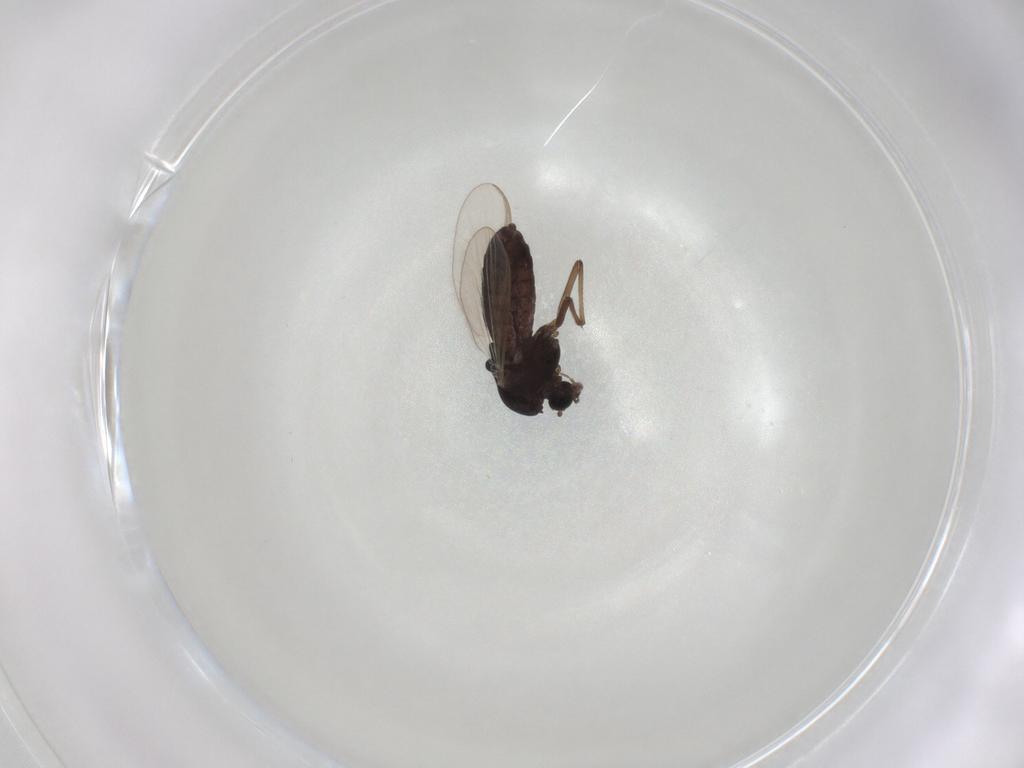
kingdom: Animalia
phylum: Arthropoda
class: Insecta
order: Diptera
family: Chironomidae
